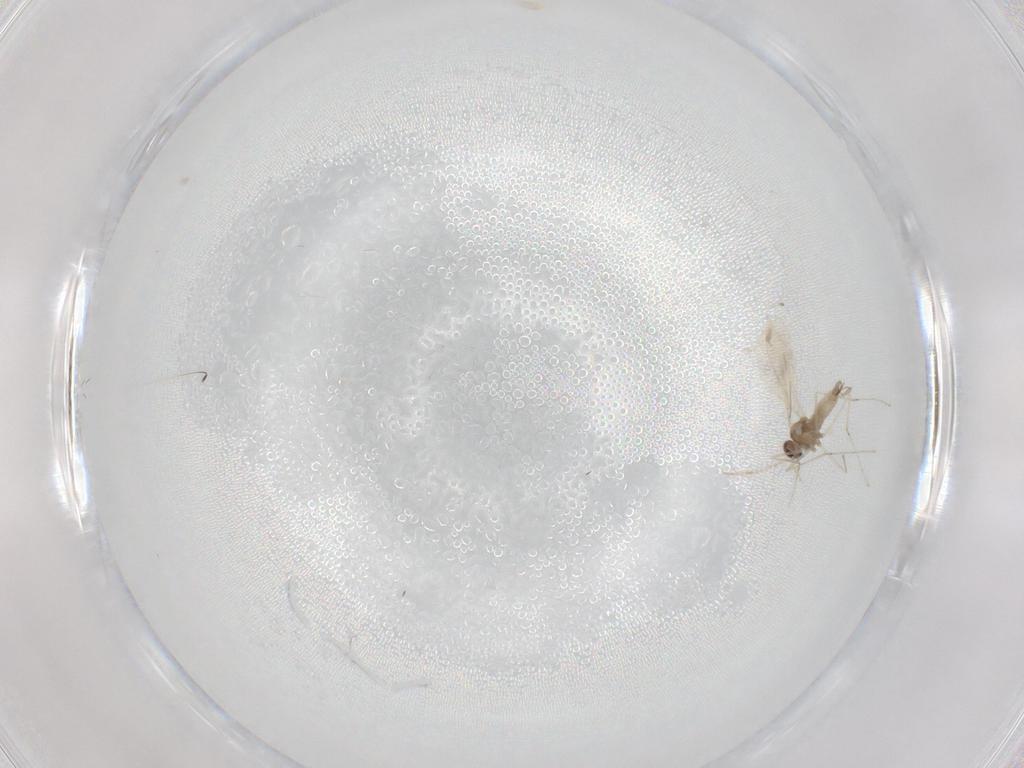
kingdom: Animalia
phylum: Arthropoda
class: Insecta
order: Diptera
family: Cecidomyiidae
